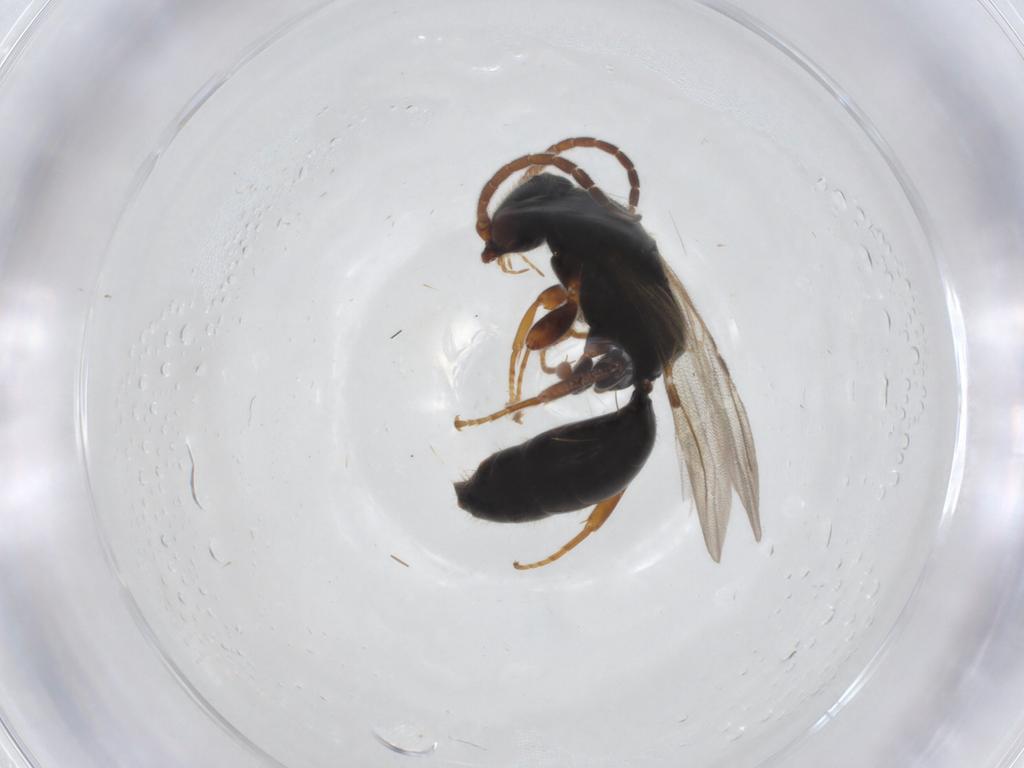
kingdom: Animalia
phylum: Arthropoda
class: Insecta
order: Hymenoptera
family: Bethylidae
